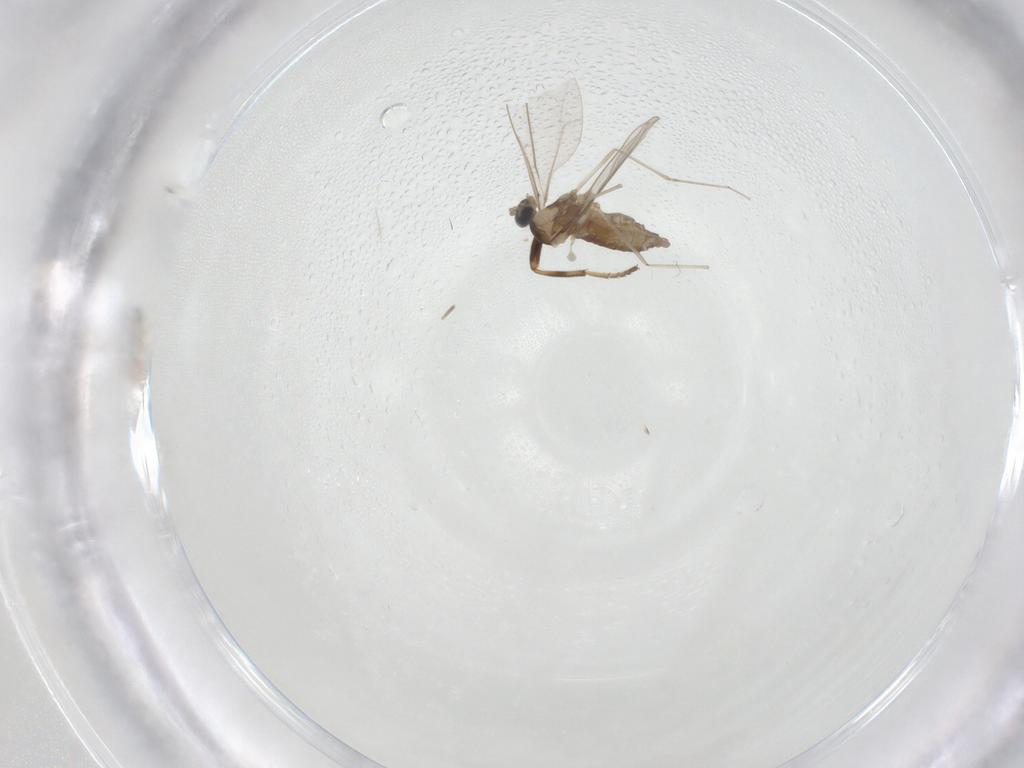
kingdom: Animalia
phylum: Arthropoda
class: Insecta
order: Diptera
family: Chloropidae
